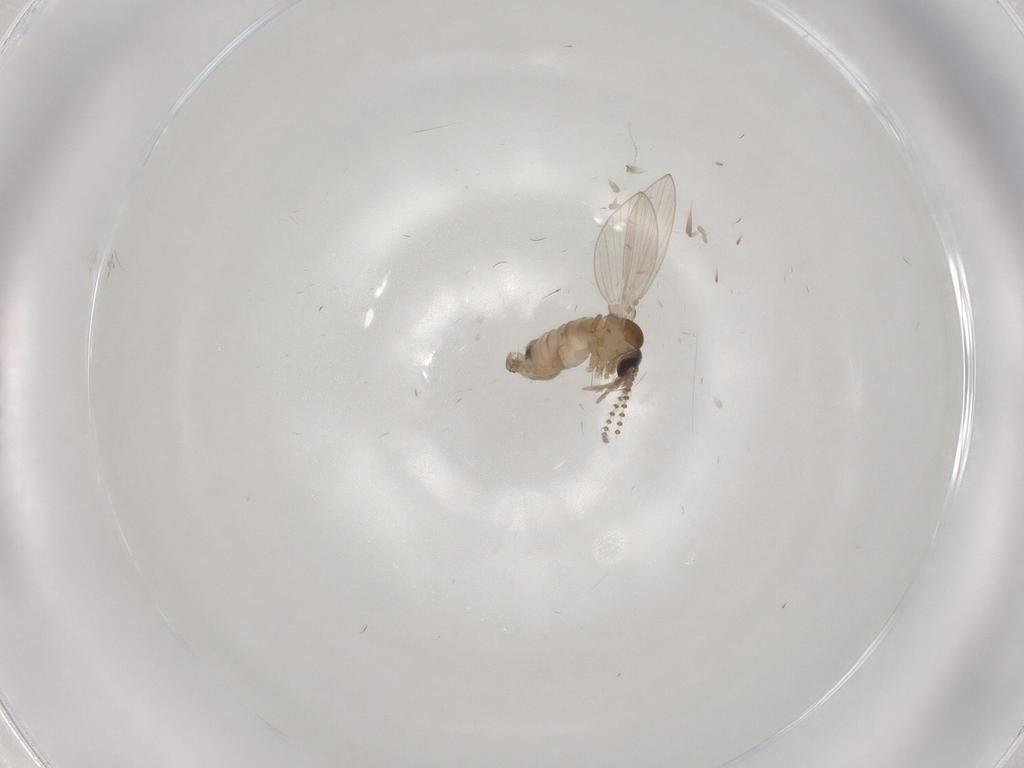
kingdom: Animalia
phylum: Arthropoda
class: Insecta
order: Diptera
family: Psychodidae
